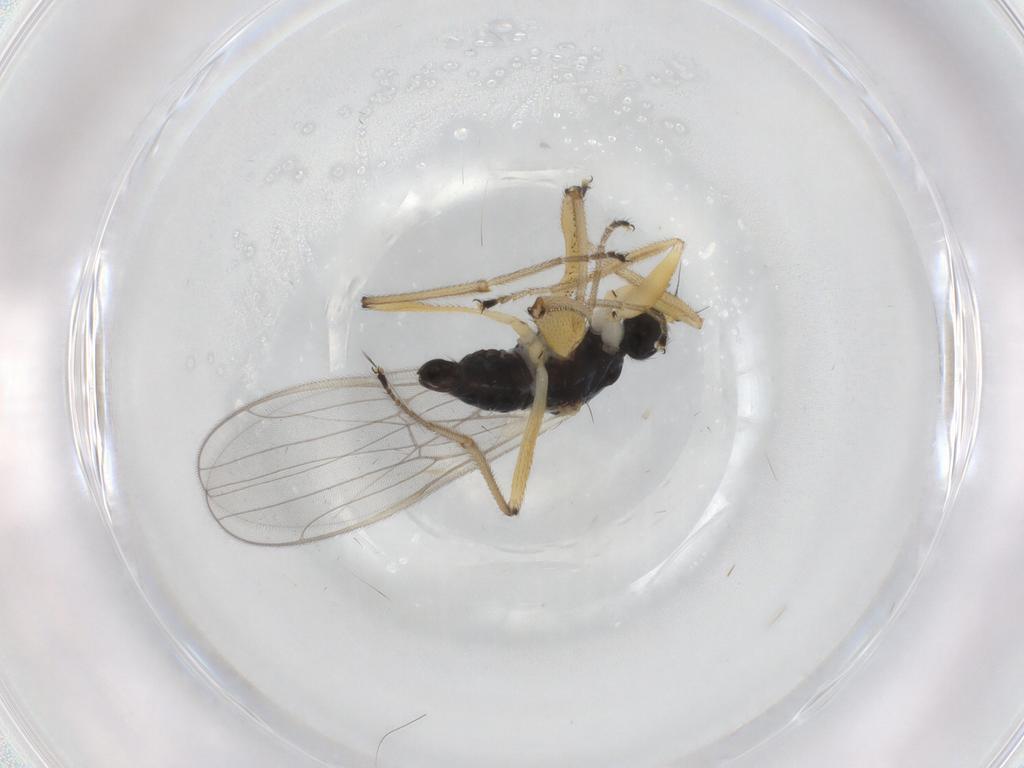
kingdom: Animalia
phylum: Arthropoda
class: Insecta
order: Diptera
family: Hybotidae
